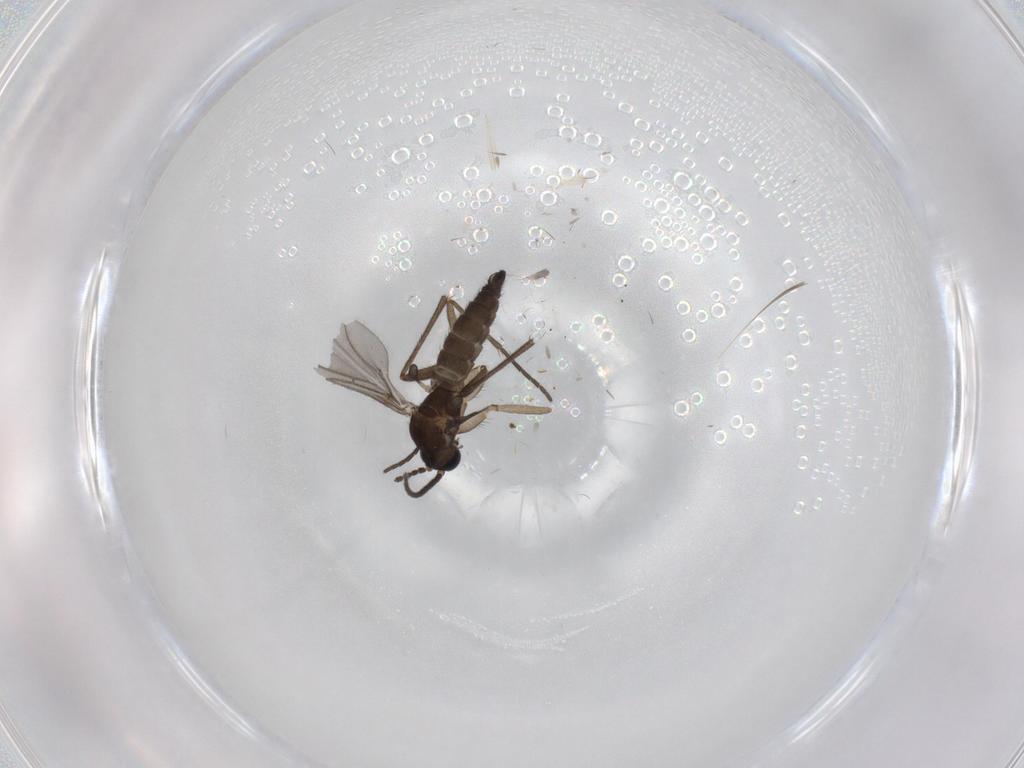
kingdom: Animalia
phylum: Arthropoda
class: Insecta
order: Diptera
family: Sciaridae
